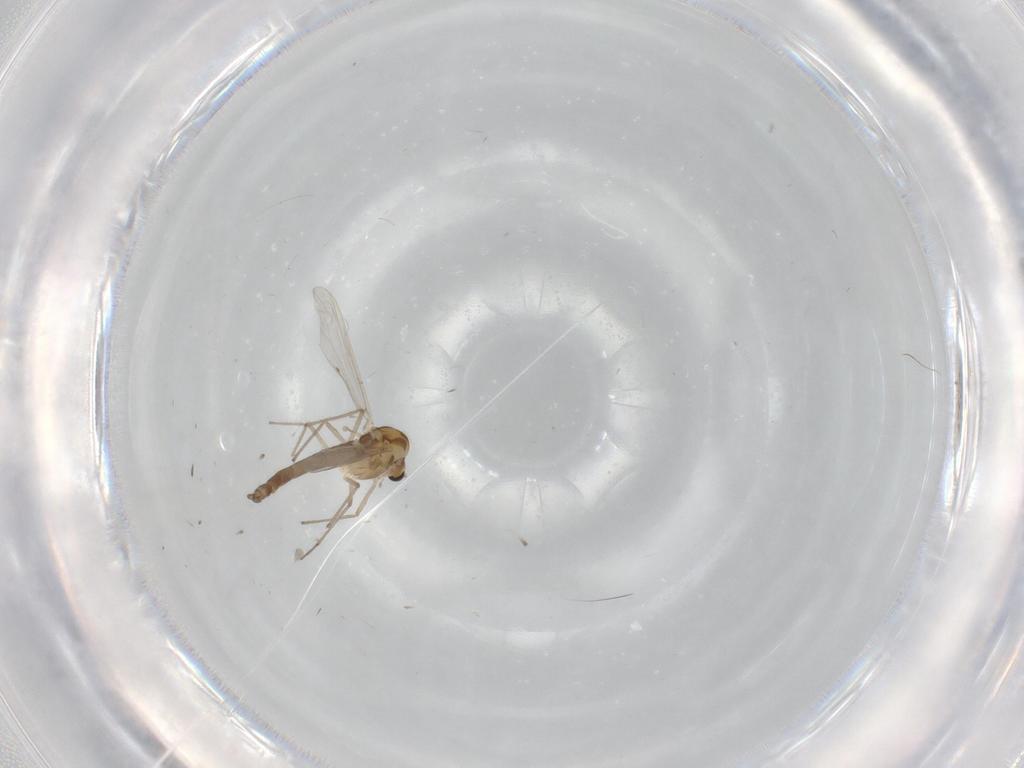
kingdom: Animalia
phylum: Arthropoda
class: Insecta
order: Diptera
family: Chironomidae
